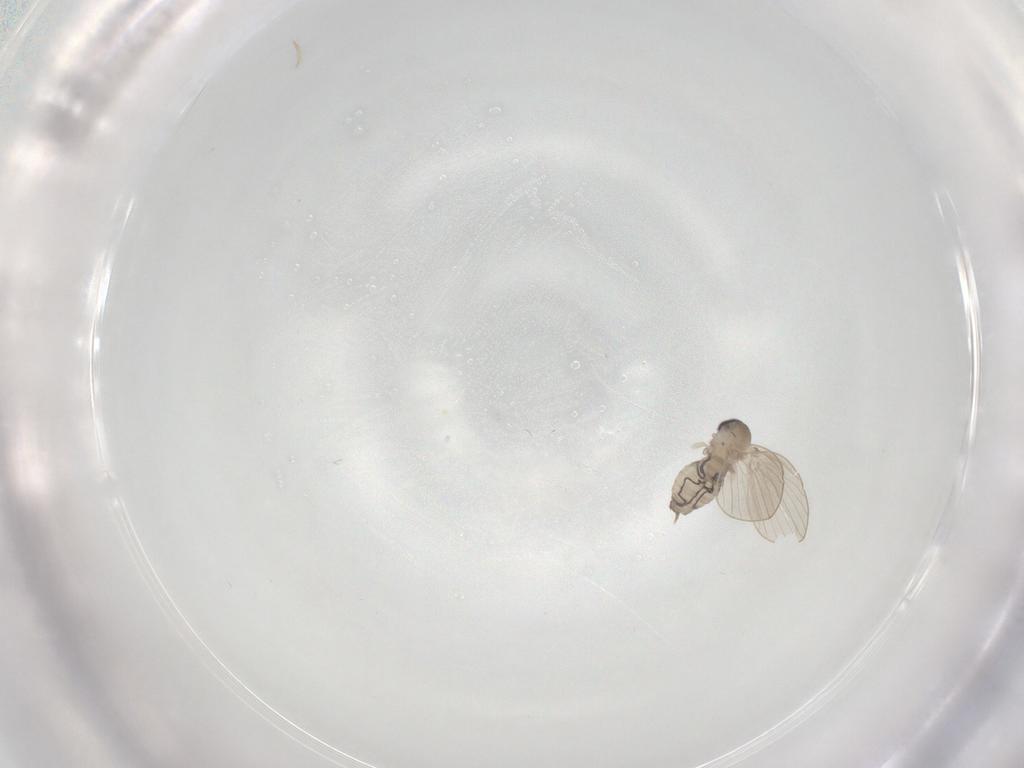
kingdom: Animalia
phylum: Arthropoda
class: Insecta
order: Diptera
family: Psychodidae
